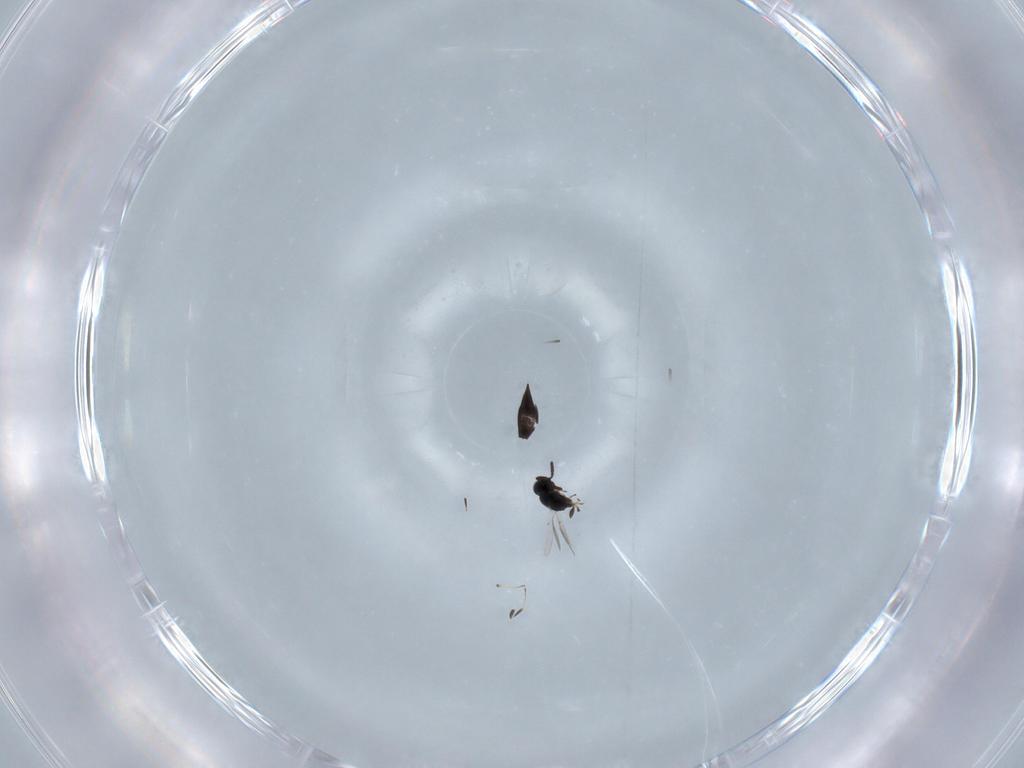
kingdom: Animalia
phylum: Arthropoda
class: Insecta
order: Hymenoptera
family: Scelionidae
